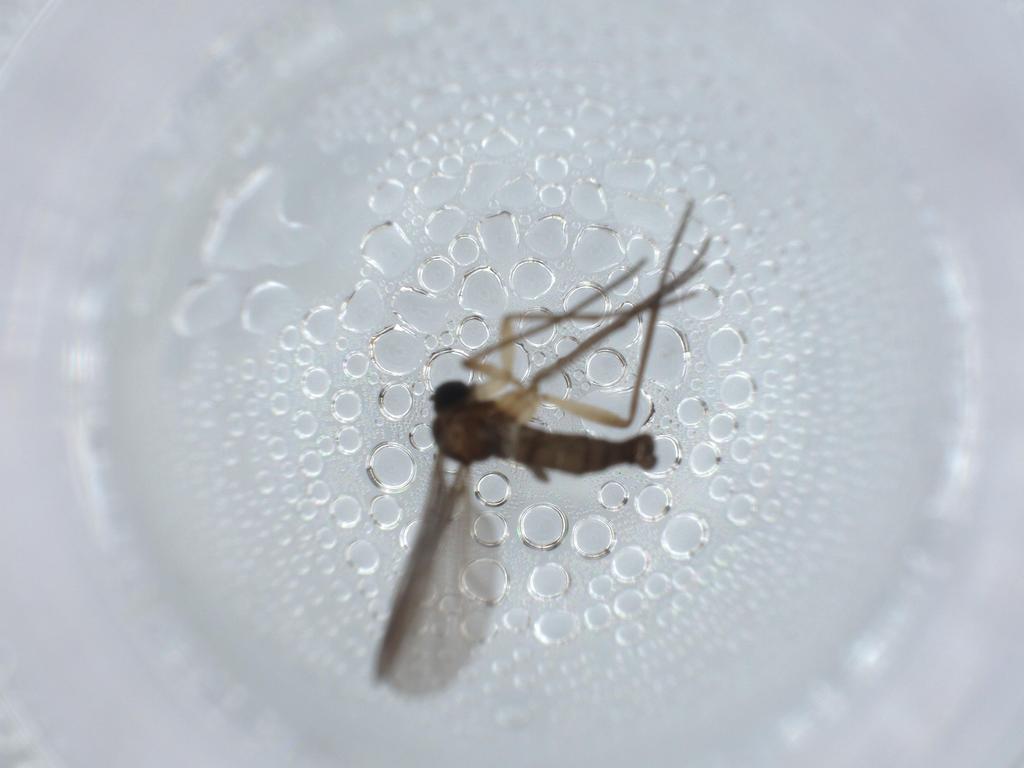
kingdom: Animalia
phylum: Arthropoda
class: Insecta
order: Diptera
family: Sciaridae
